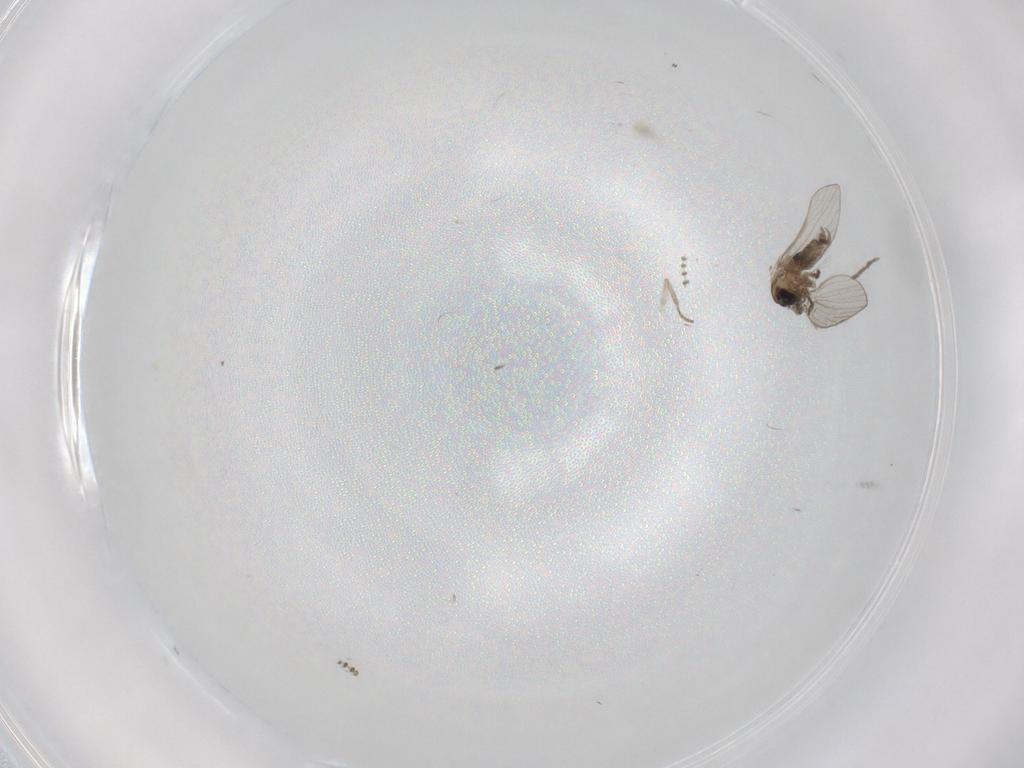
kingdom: Animalia
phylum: Arthropoda
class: Insecta
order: Diptera
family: Psychodidae
